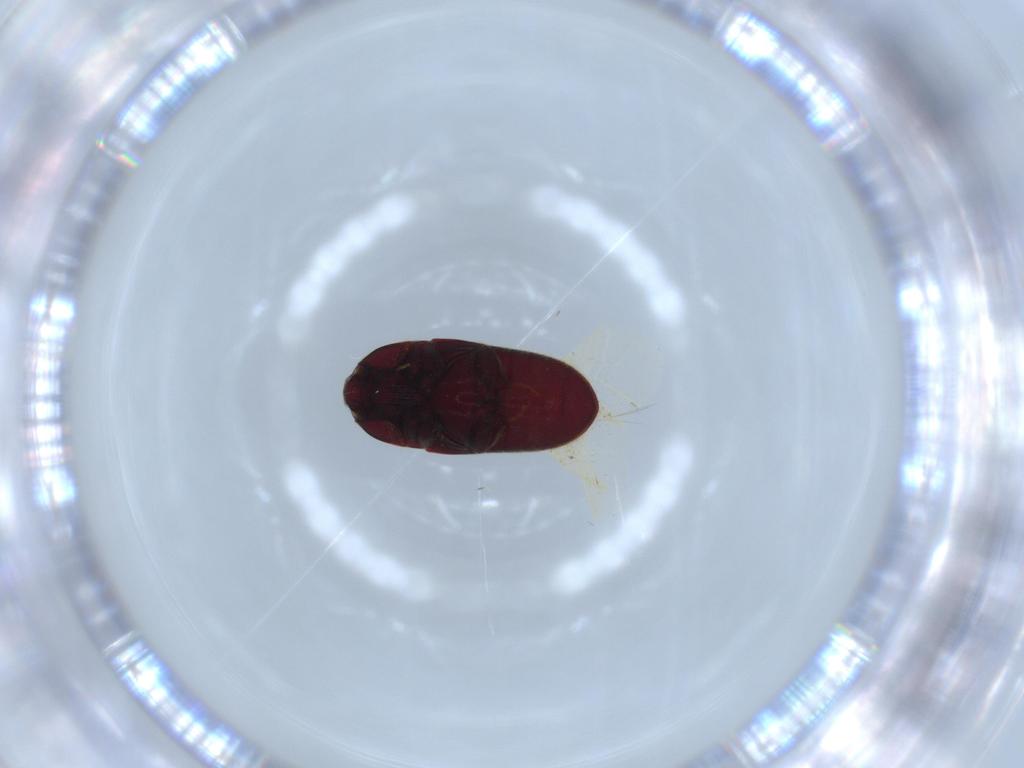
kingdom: Animalia
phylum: Arthropoda
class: Insecta
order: Coleoptera
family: Throscidae
